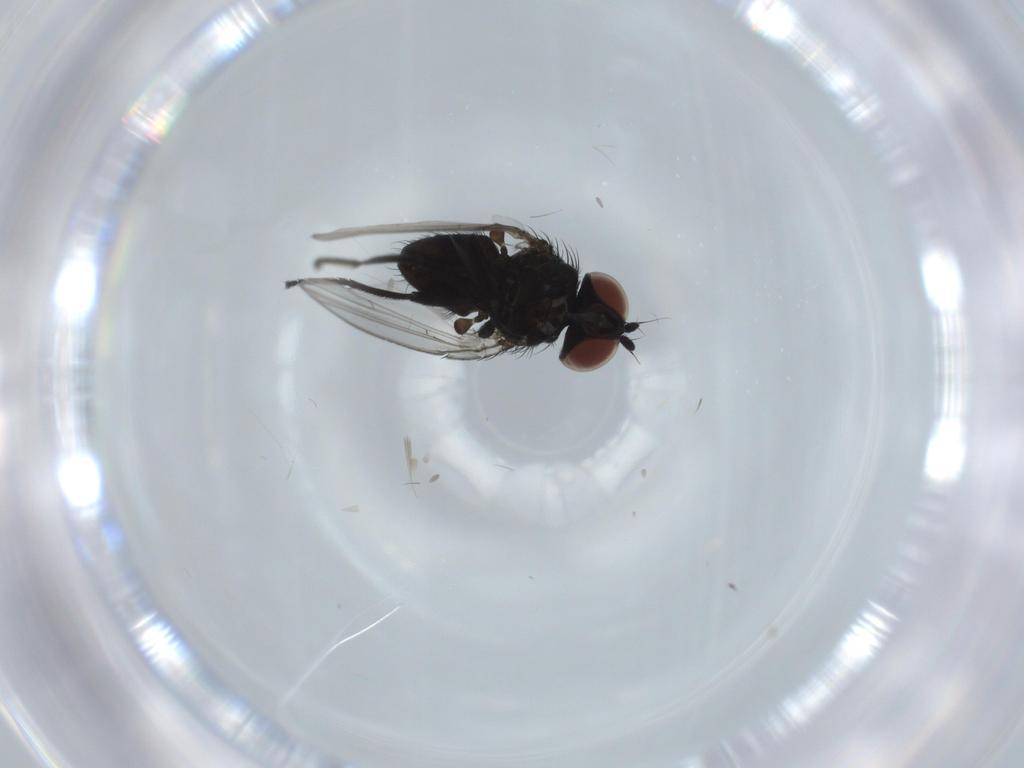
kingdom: Animalia
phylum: Arthropoda
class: Insecta
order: Diptera
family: Milichiidae
